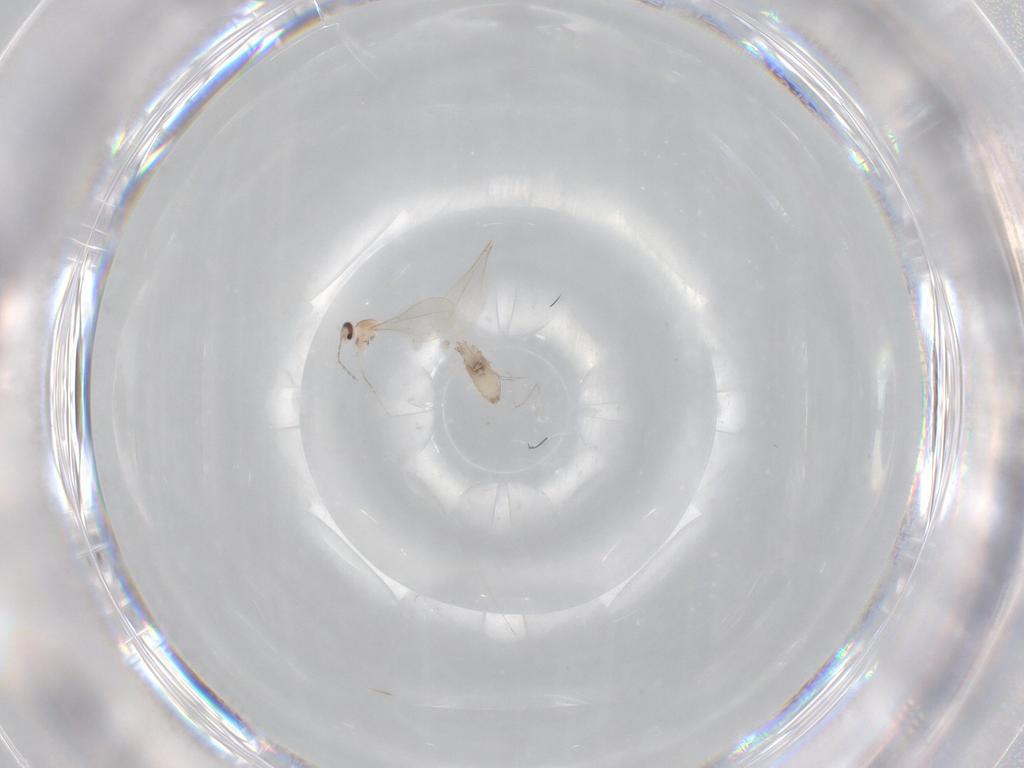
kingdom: Animalia
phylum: Arthropoda
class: Insecta
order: Diptera
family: Cecidomyiidae
